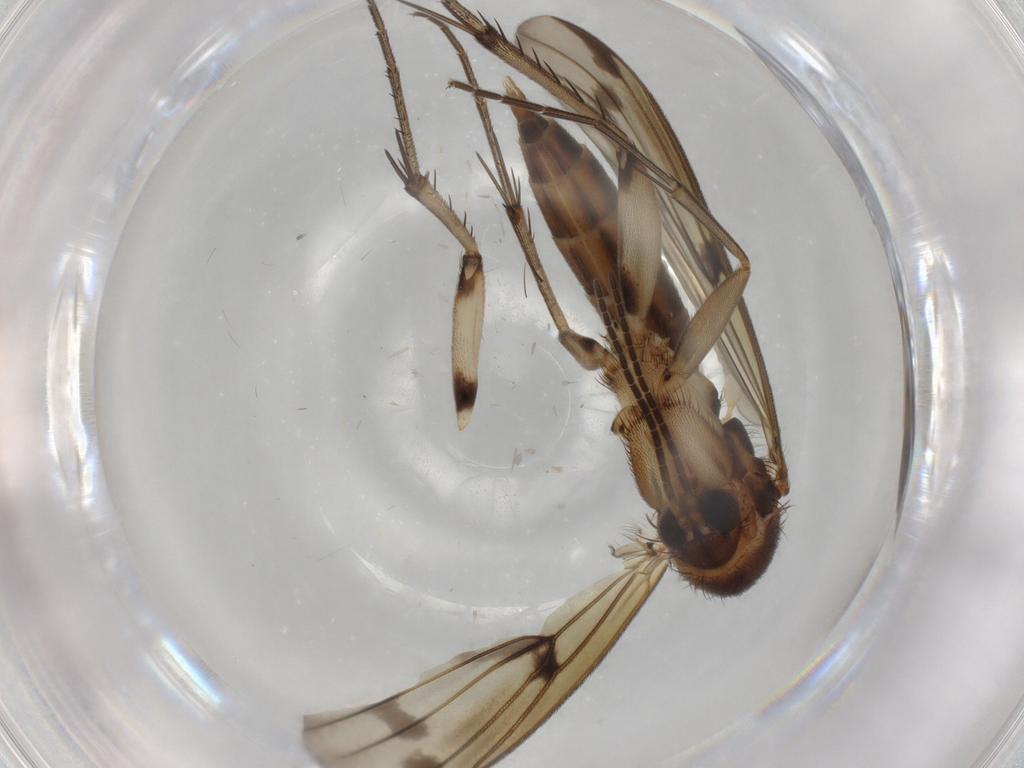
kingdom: Animalia
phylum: Arthropoda
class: Insecta
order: Diptera
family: Mycetophilidae
